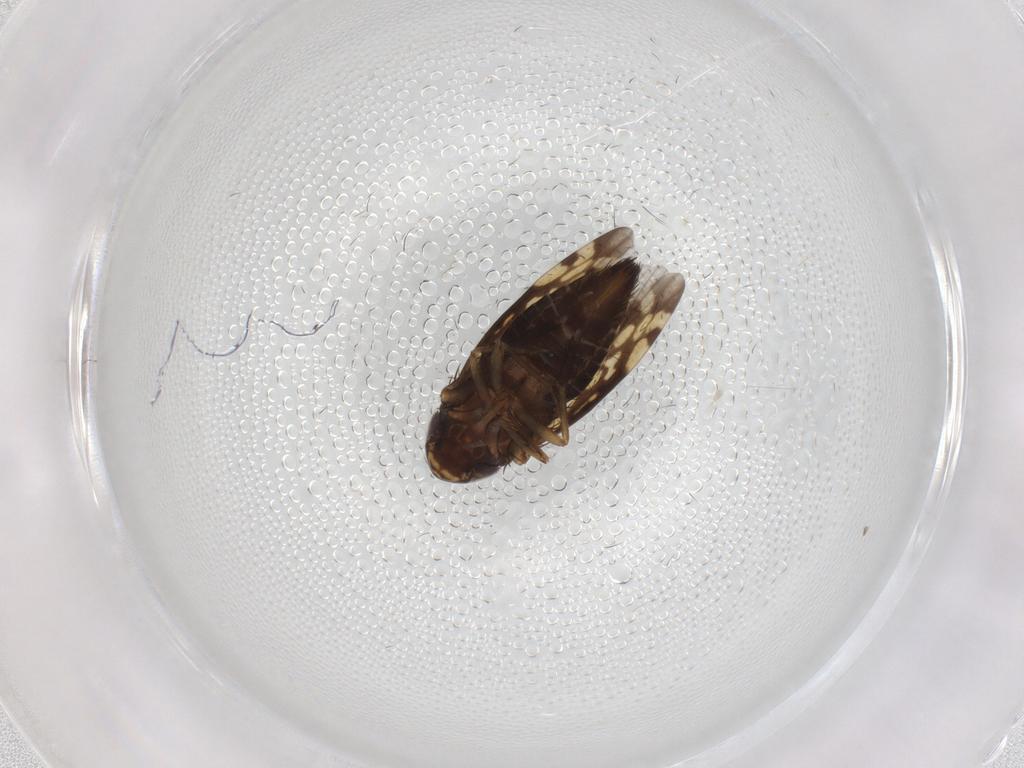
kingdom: Animalia
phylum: Arthropoda
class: Insecta
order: Hemiptera
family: Cicadellidae
